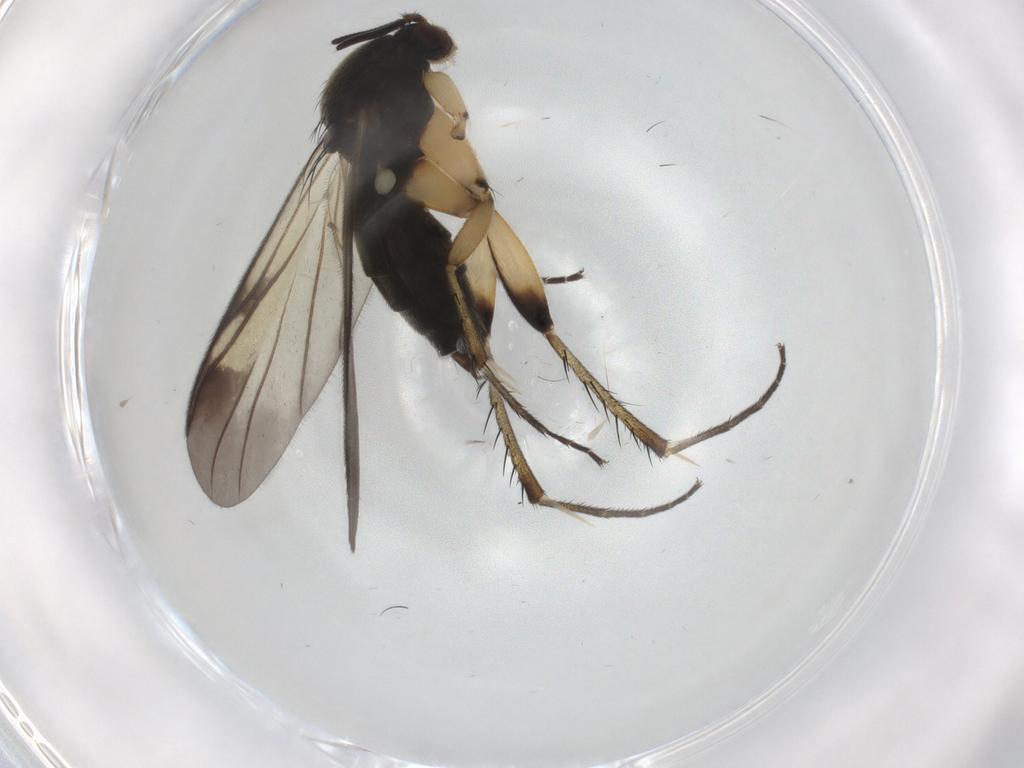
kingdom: Animalia
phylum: Arthropoda
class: Insecta
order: Diptera
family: Mycetophilidae
